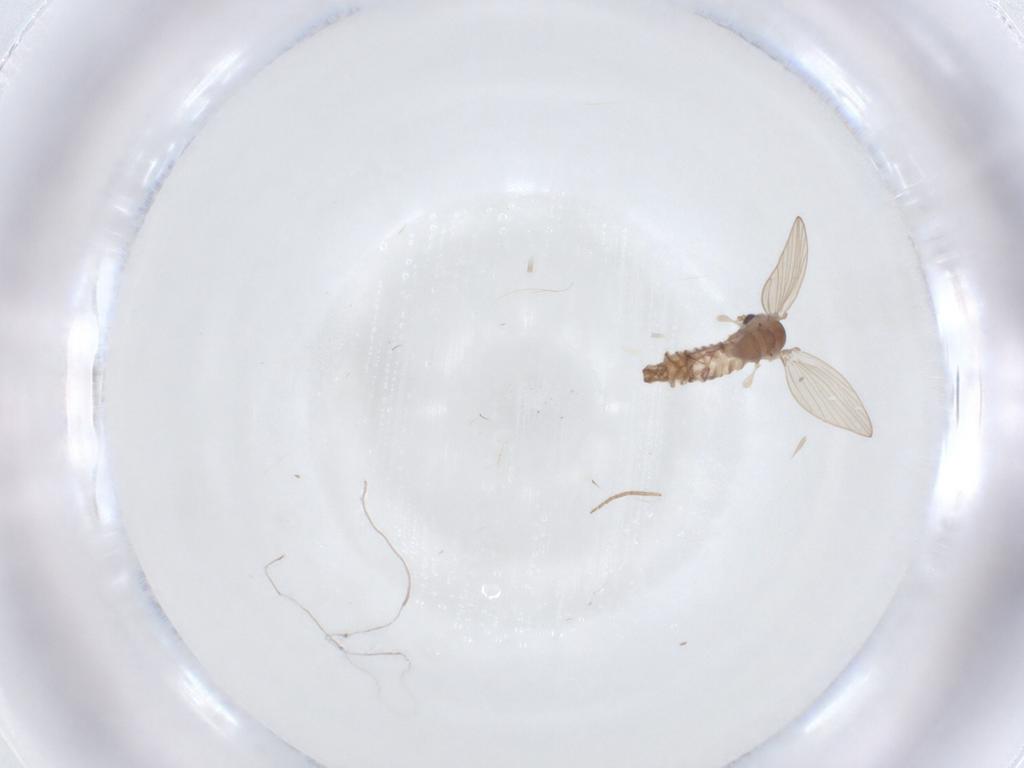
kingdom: Animalia
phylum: Arthropoda
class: Insecta
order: Diptera
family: Psychodidae
